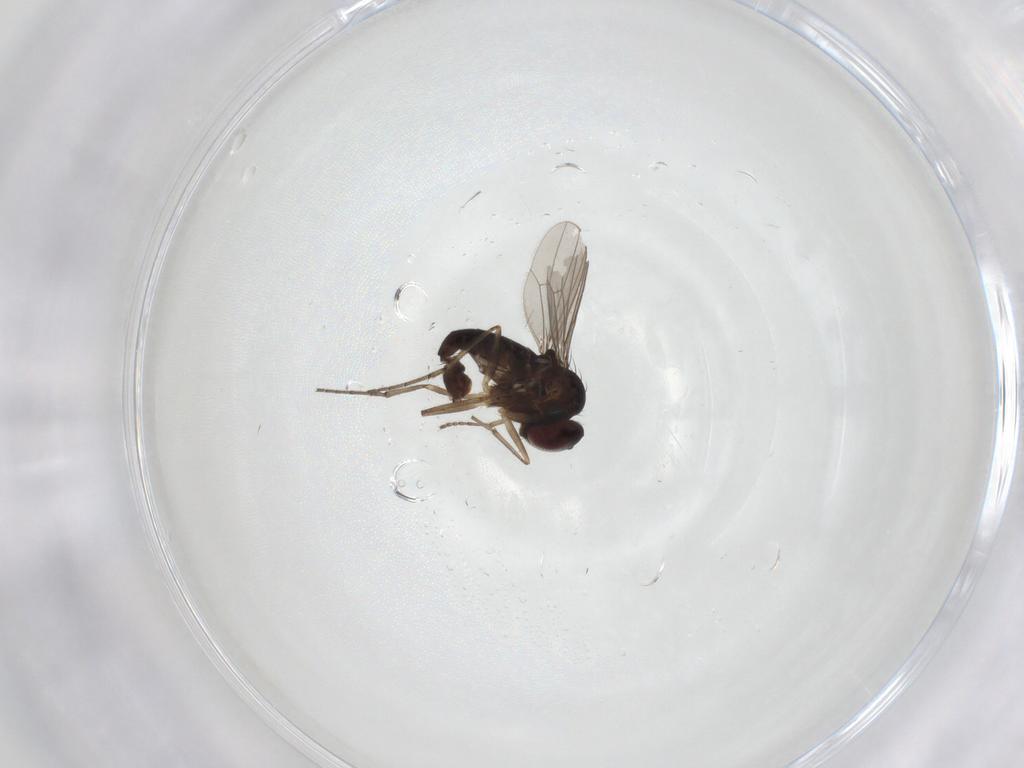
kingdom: Animalia
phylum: Arthropoda
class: Insecta
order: Diptera
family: Cecidomyiidae
